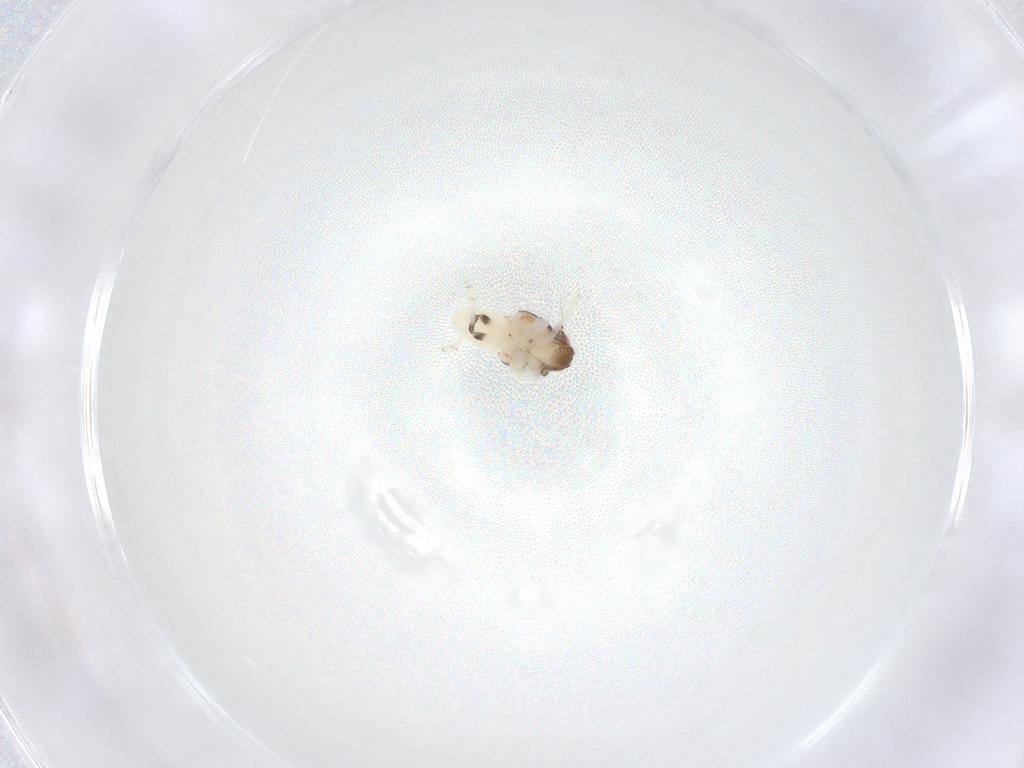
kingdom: Animalia
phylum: Arthropoda
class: Insecta
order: Hemiptera
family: Nogodinidae
